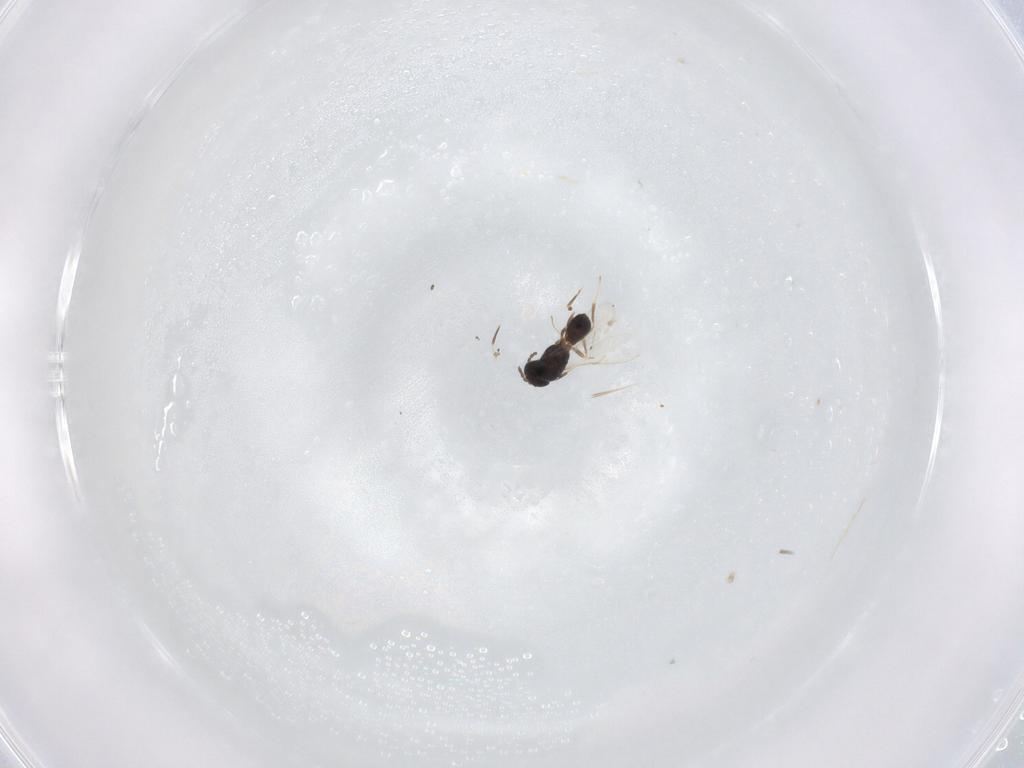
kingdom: Animalia
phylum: Arthropoda
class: Insecta
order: Hymenoptera
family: Scelionidae
